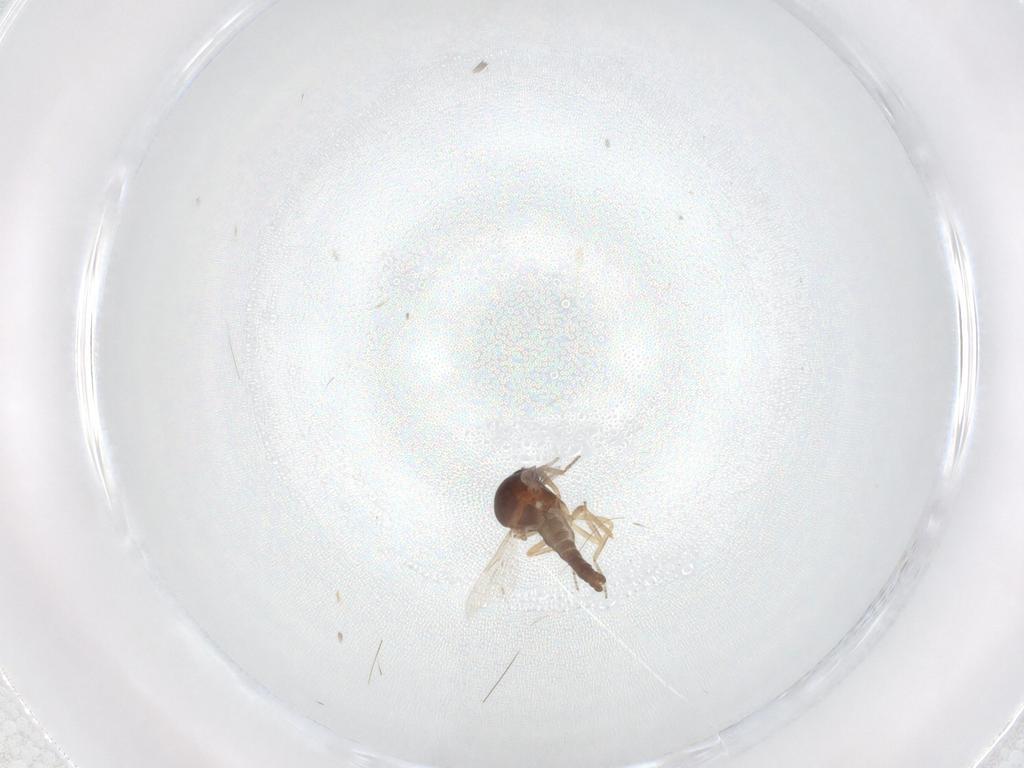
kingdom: Animalia
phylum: Arthropoda
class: Insecta
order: Diptera
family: Ceratopogonidae
